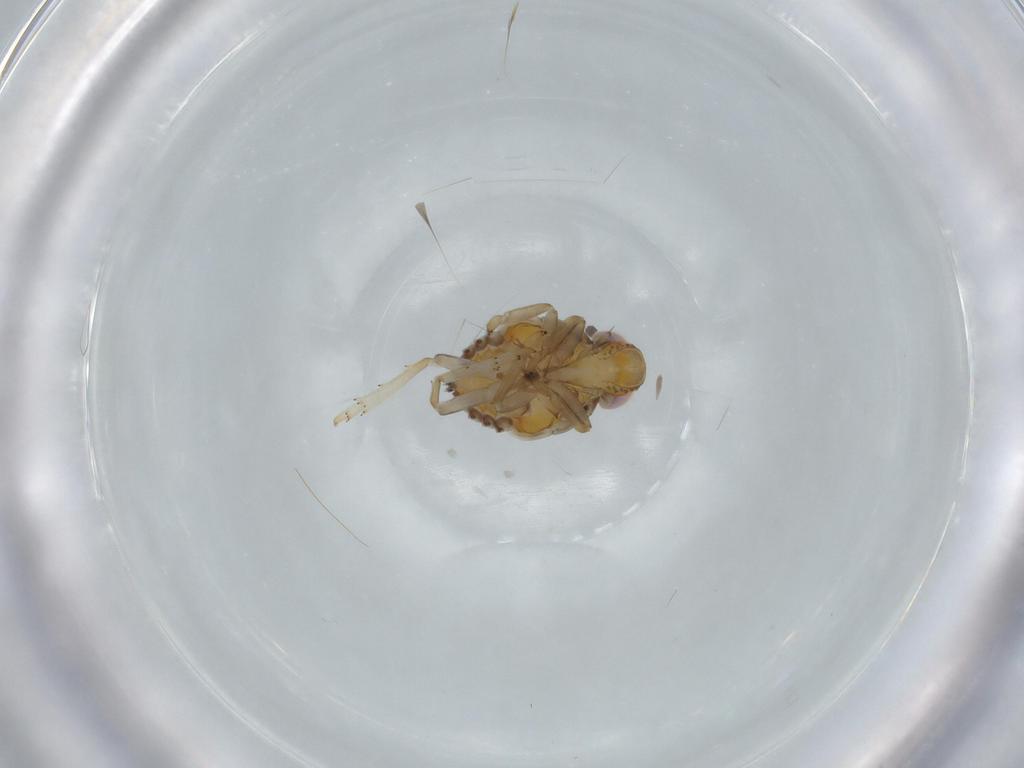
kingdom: Animalia
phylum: Arthropoda
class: Insecta
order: Hemiptera
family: Issidae
